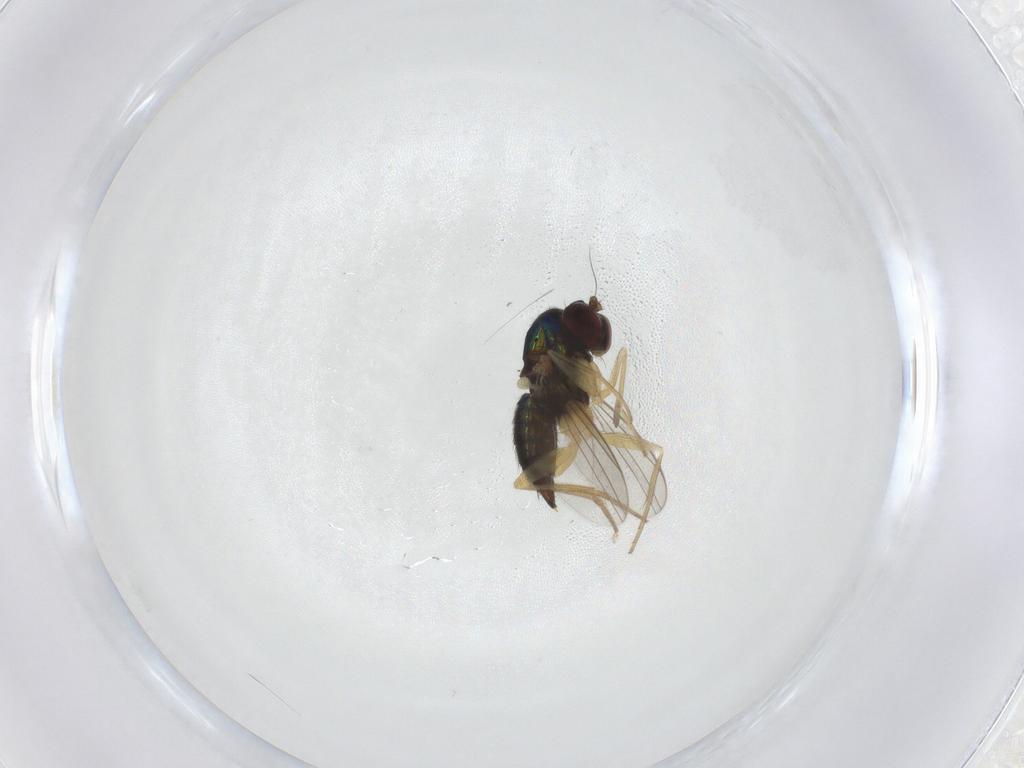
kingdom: Animalia
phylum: Arthropoda
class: Insecta
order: Diptera
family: Dolichopodidae
